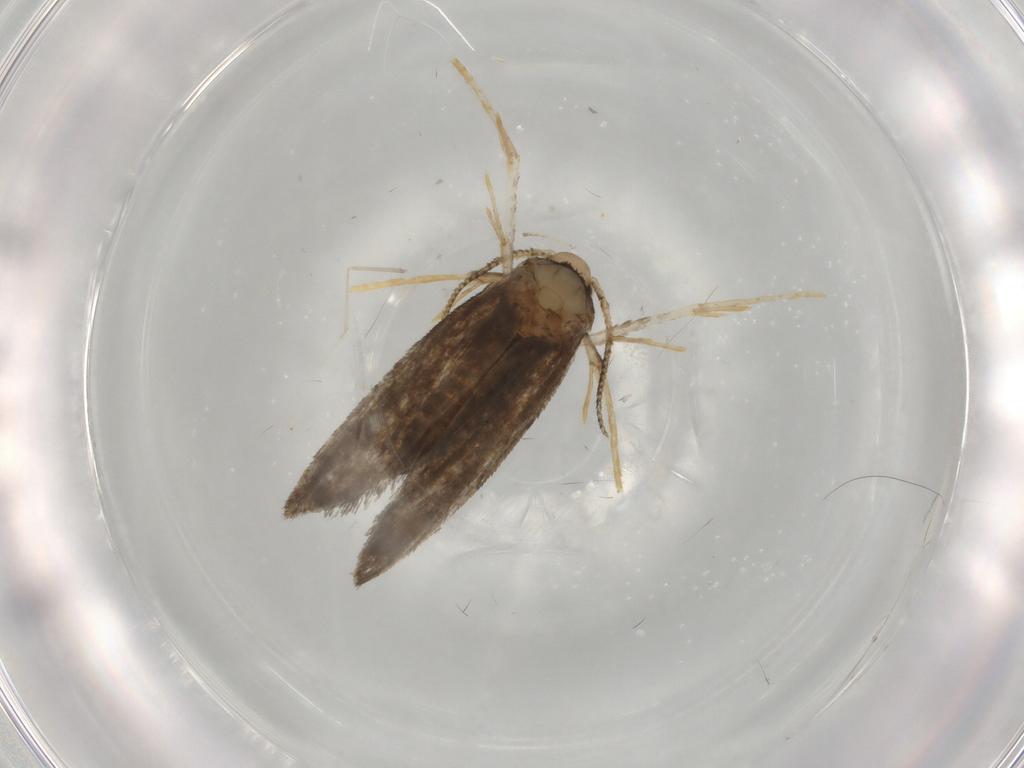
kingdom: Animalia
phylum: Arthropoda
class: Insecta
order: Lepidoptera
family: Psychidae
